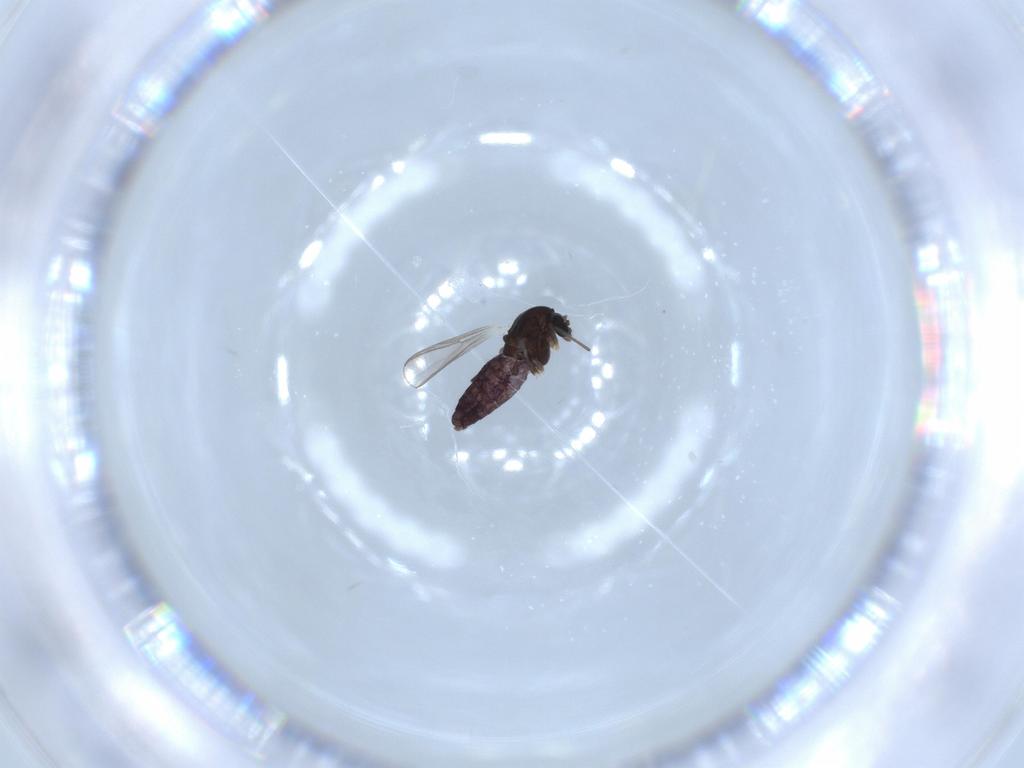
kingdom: Animalia
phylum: Arthropoda
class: Insecta
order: Diptera
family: Chironomidae
